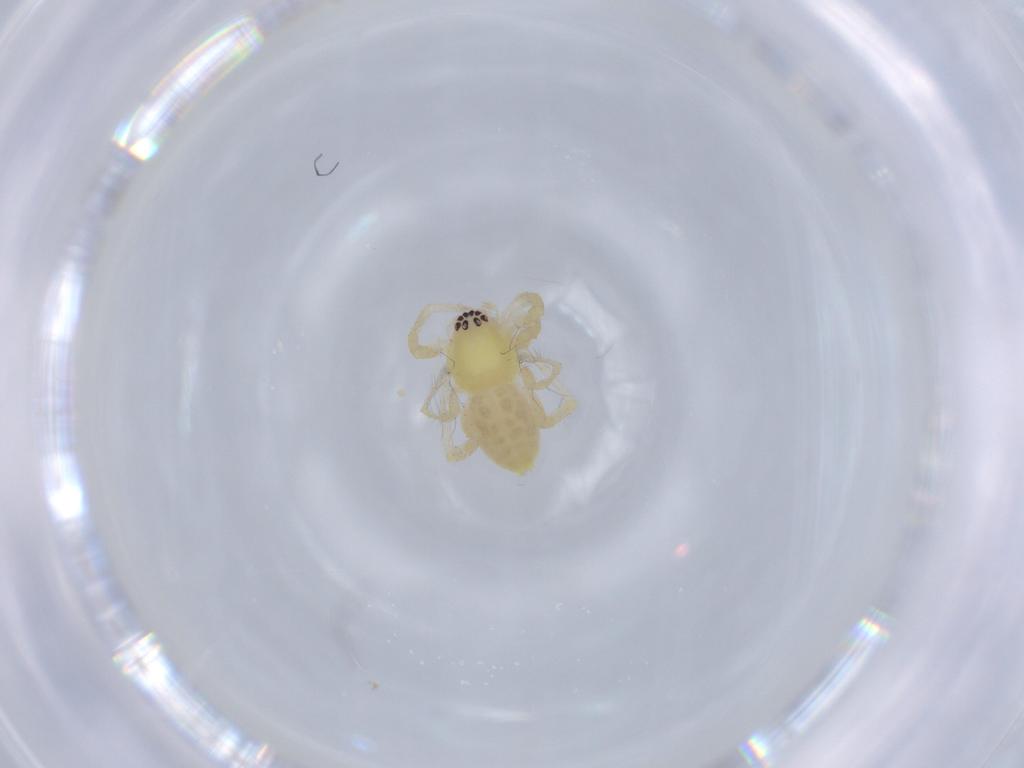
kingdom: Animalia
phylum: Arthropoda
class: Arachnida
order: Araneae
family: Anyphaenidae
